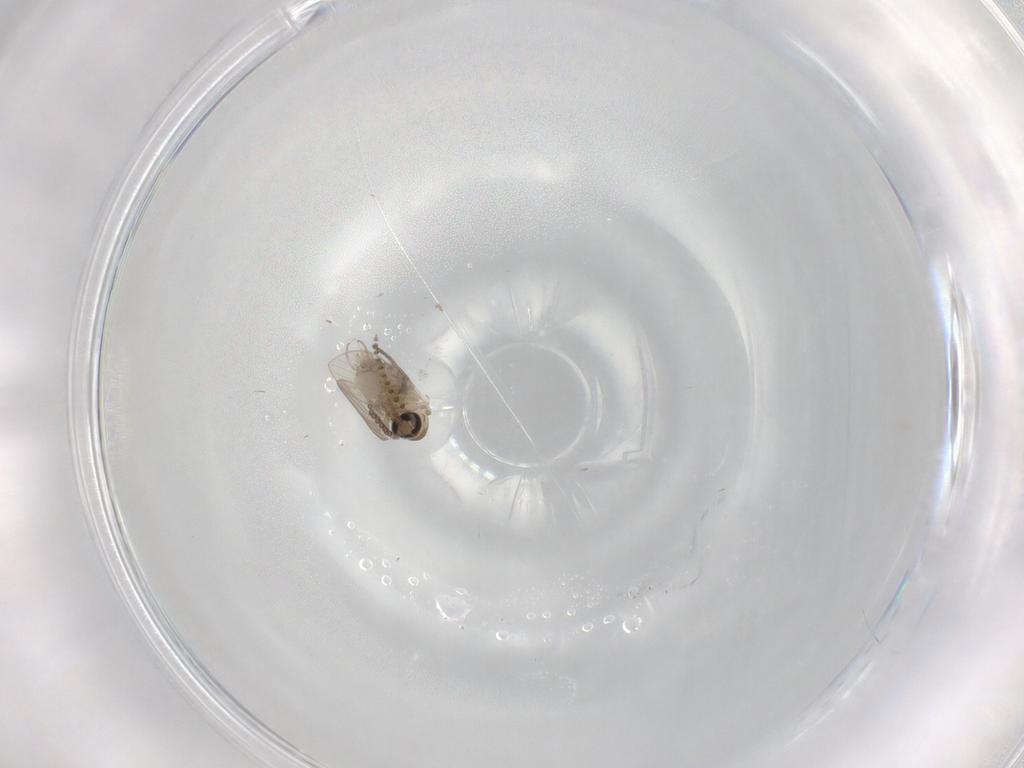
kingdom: Animalia
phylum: Arthropoda
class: Insecta
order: Diptera
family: Psychodidae
